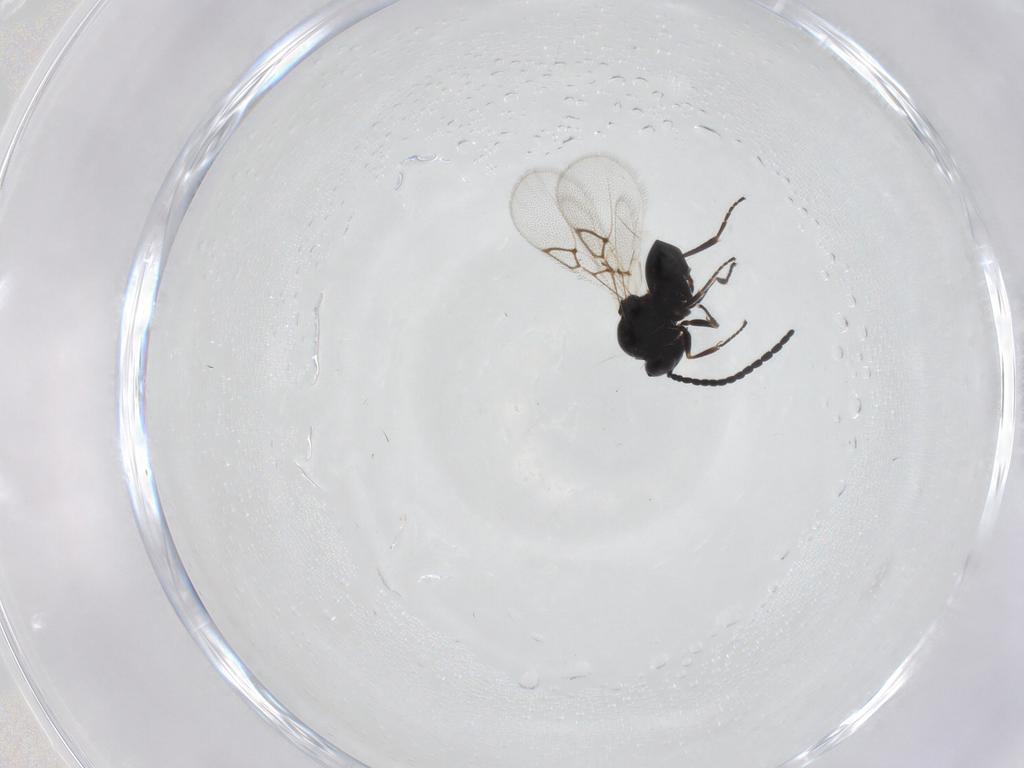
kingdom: Animalia
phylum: Arthropoda
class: Insecta
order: Hymenoptera
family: Figitidae
